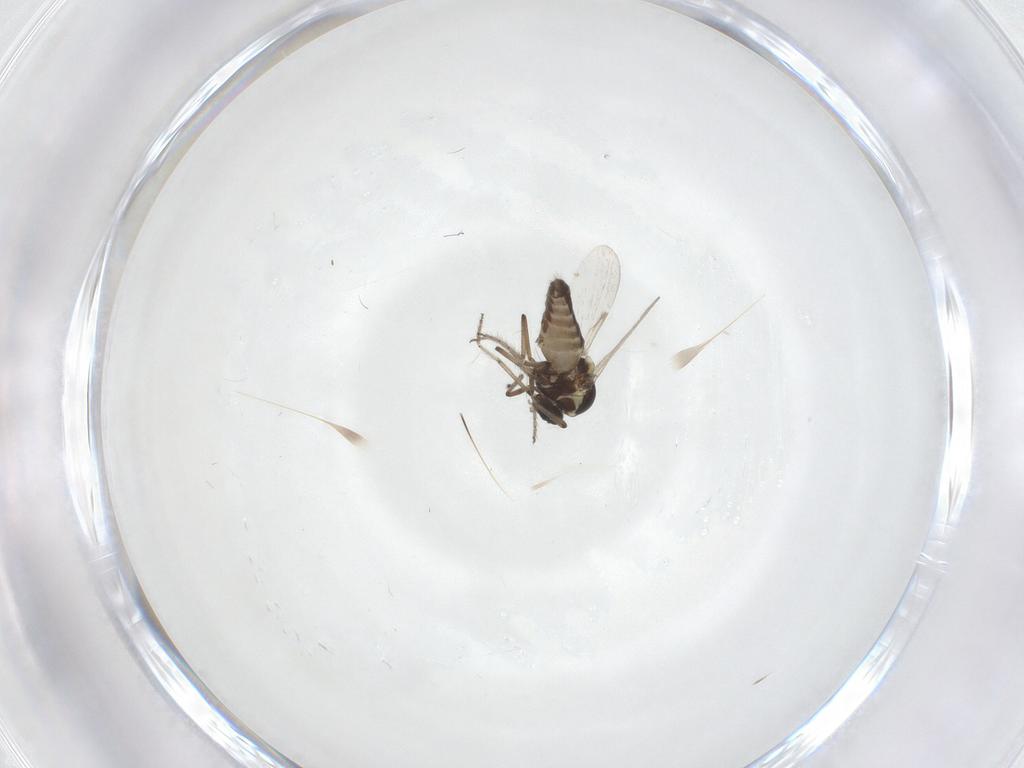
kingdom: Animalia
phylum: Arthropoda
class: Insecta
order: Diptera
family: Ceratopogonidae
